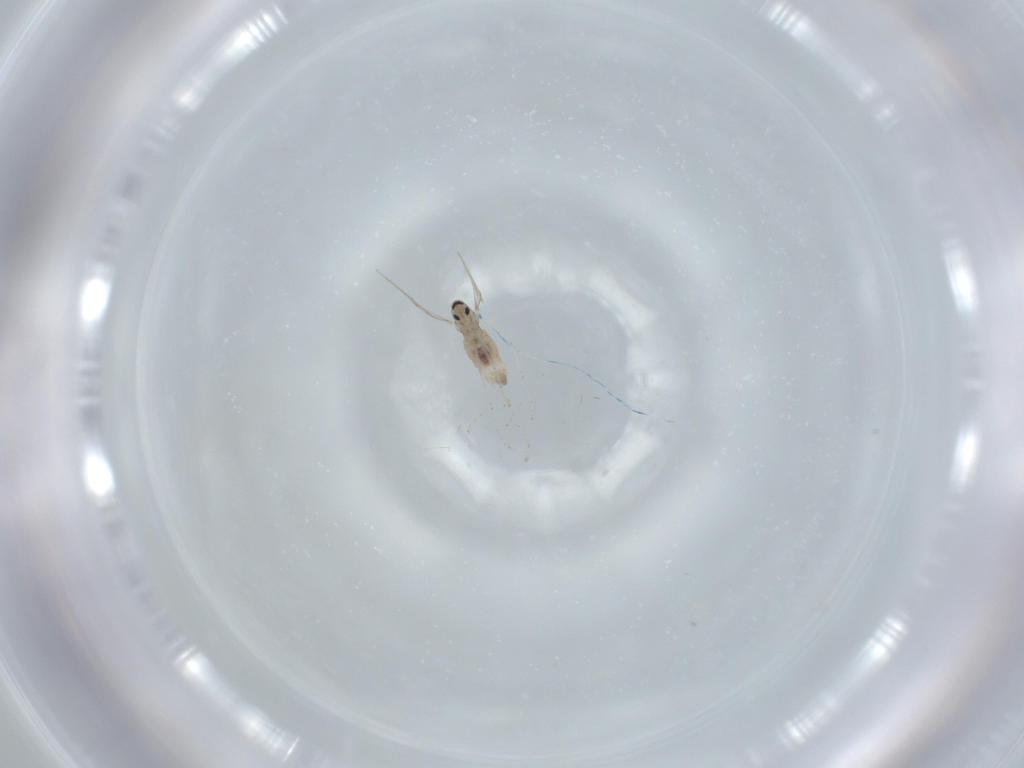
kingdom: Animalia
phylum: Arthropoda
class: Insecta
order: Diptera
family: Cecidomyiidae
